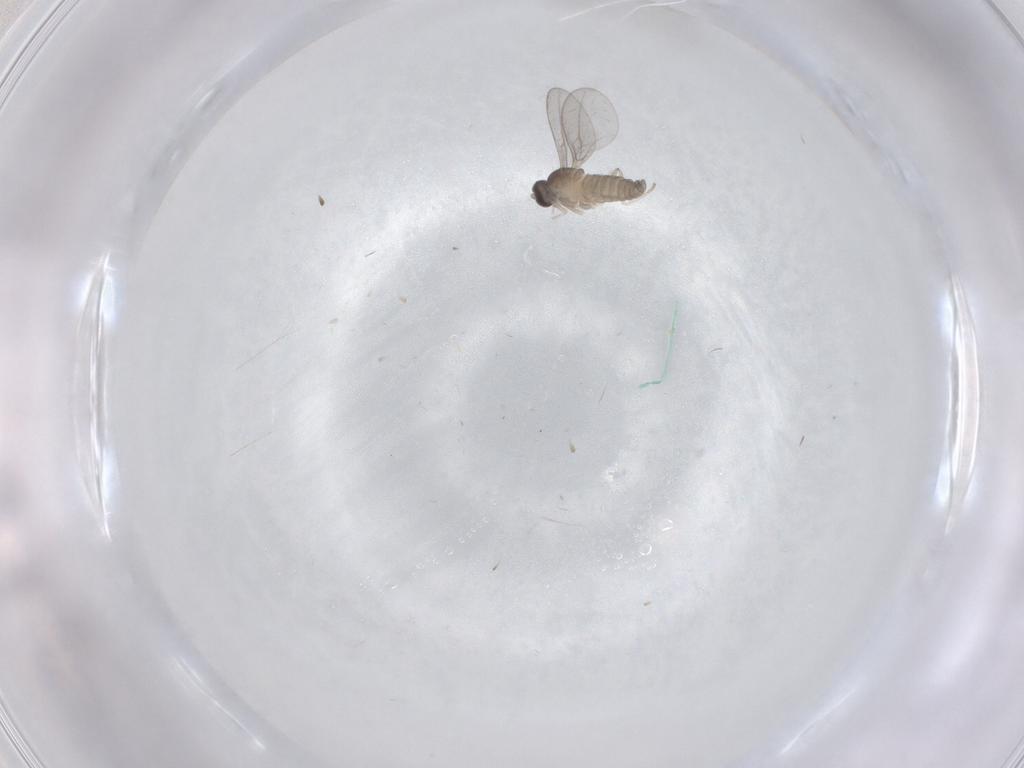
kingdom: Animalia
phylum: Arthropoda
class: Insecta
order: Diptera
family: Cecidomyiidae
